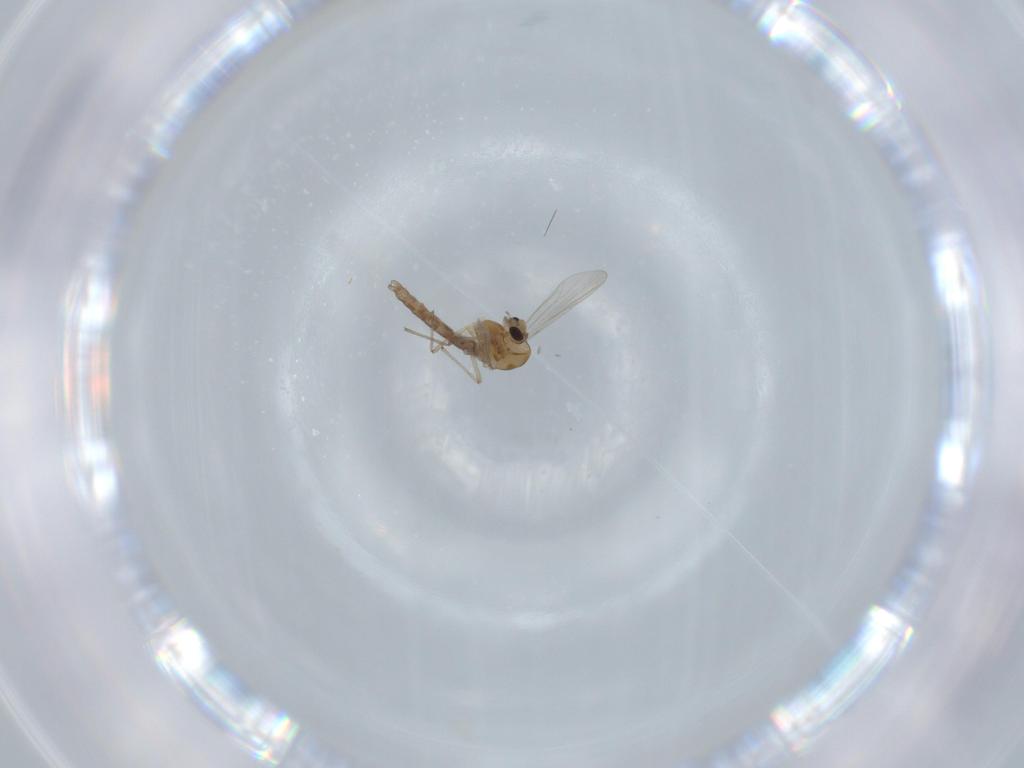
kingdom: Animalia
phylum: Arthropoda
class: Insecta
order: Diptera
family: Chironomidae
